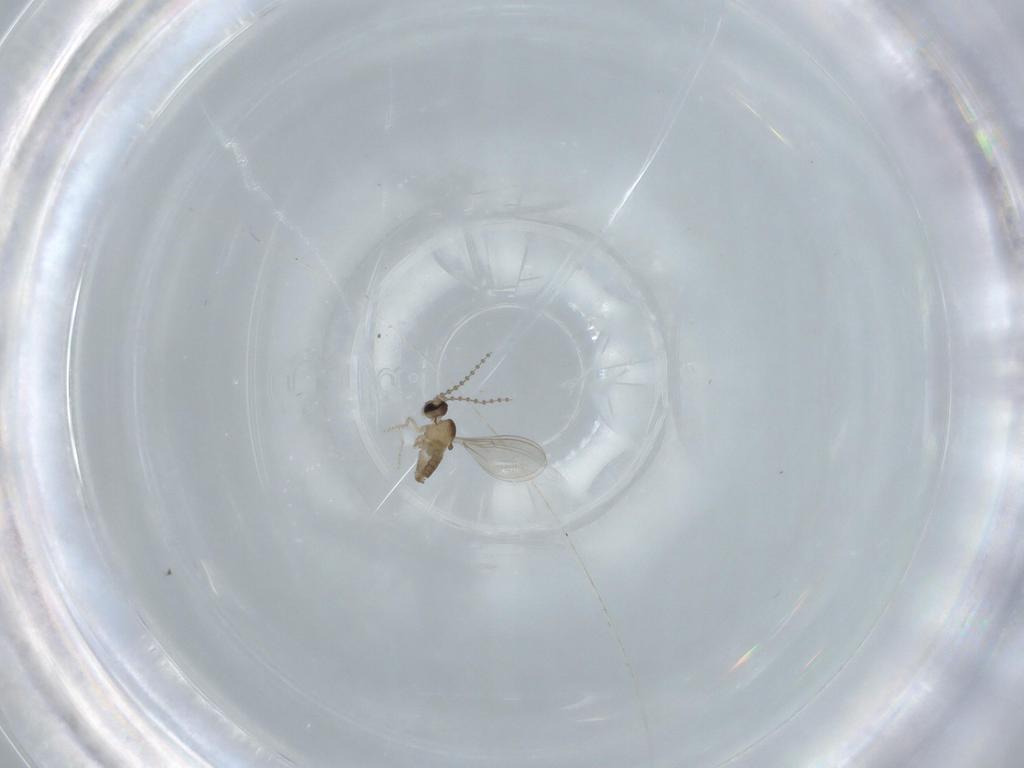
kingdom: Animalia
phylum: Arthropoda
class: Insecta
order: Diptera
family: Cecidomyiidae
